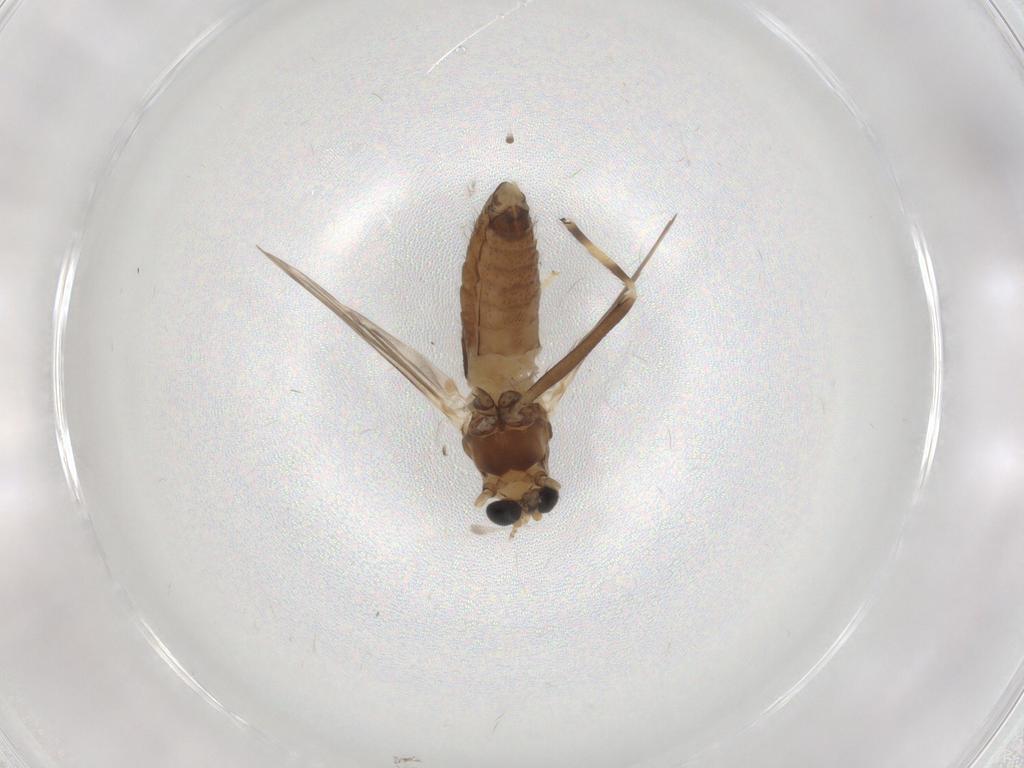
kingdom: Animalia
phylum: Arthropoda
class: Insecta
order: Diptera
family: Chironomidae
